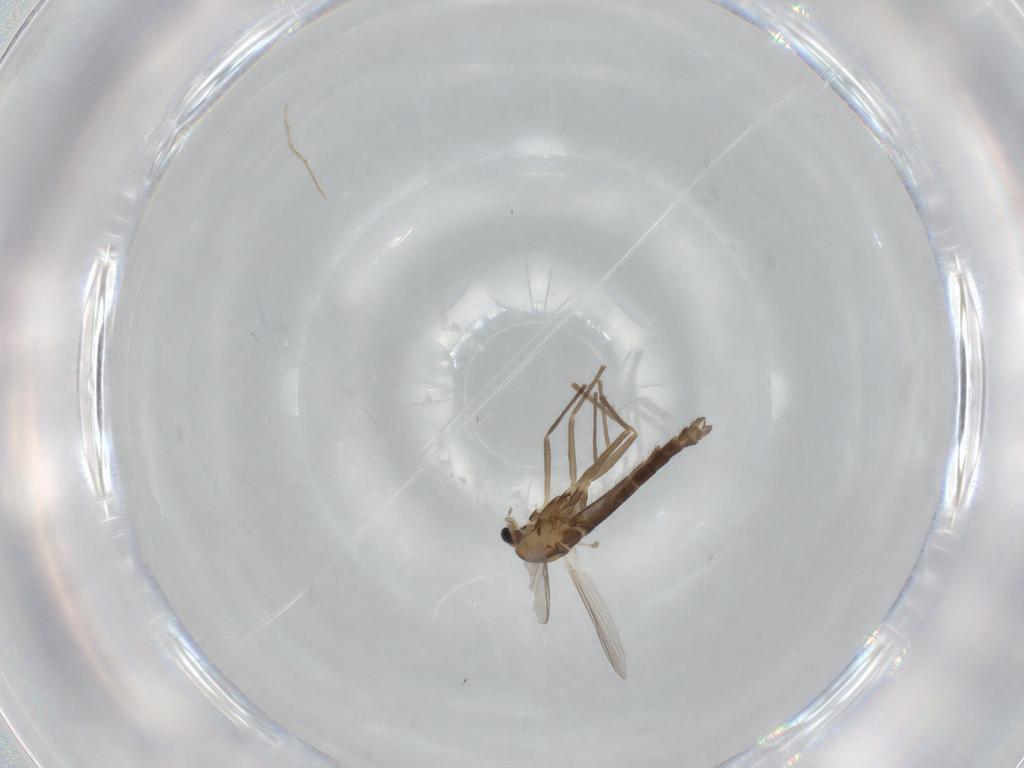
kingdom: Animalia
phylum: Arthropoda
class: Insecta
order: Diptera
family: Chironomidae
